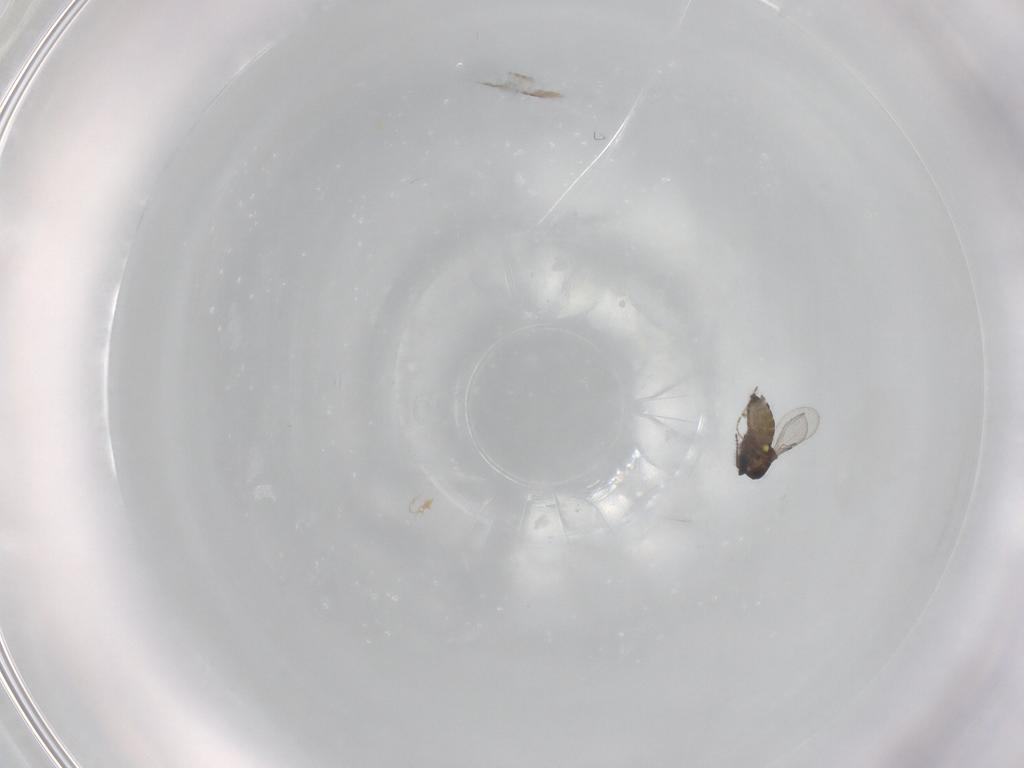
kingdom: Animalia
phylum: Arthropoda
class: Insecta
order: Diptera
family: Ceratopogonidae
